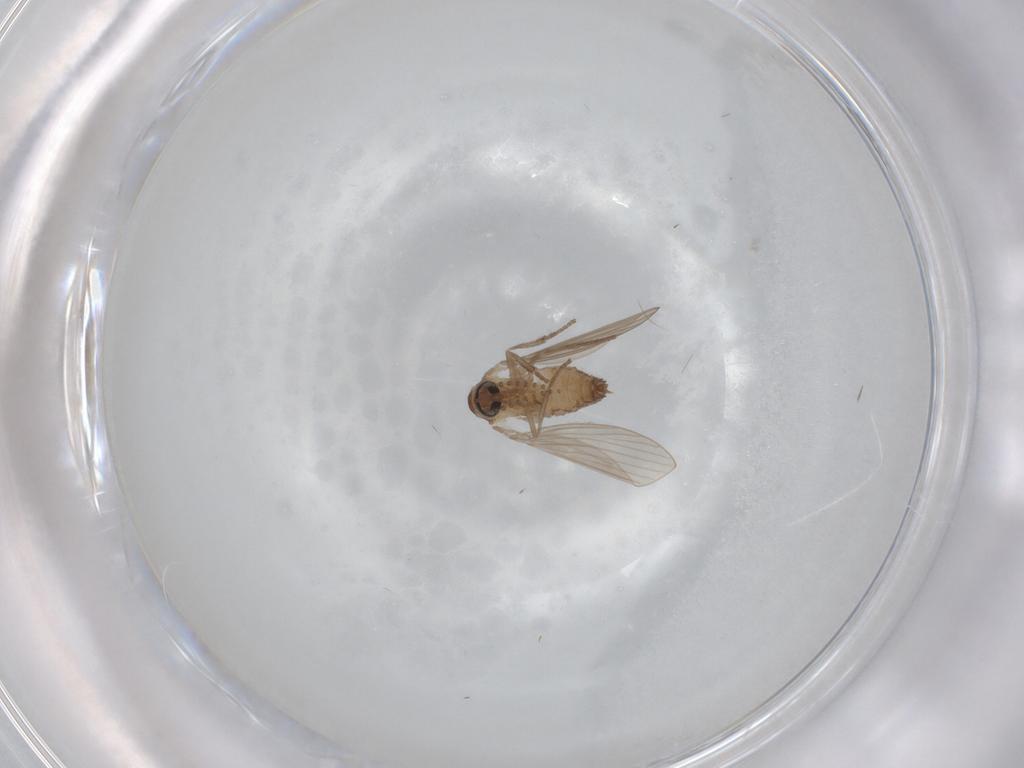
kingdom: Animalia
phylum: Arthropoda
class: Insecta
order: Diptera
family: Psychodidae
